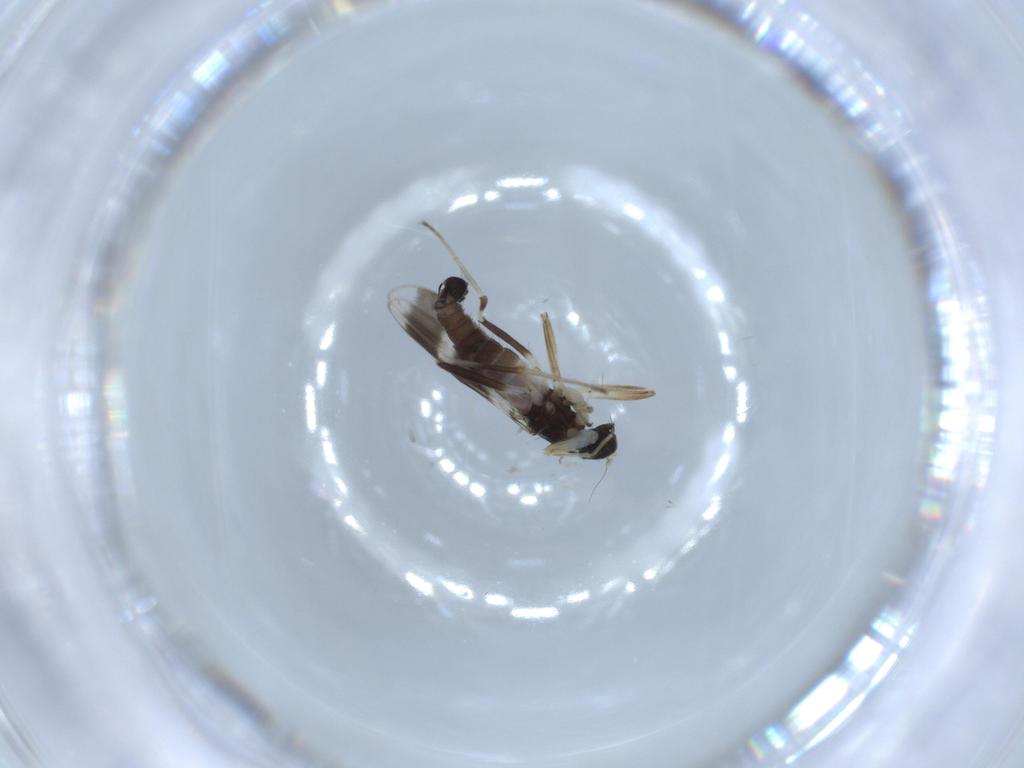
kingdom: Animalia
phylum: Arthropoda
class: Insecta
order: Diptera
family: Hybotidae
